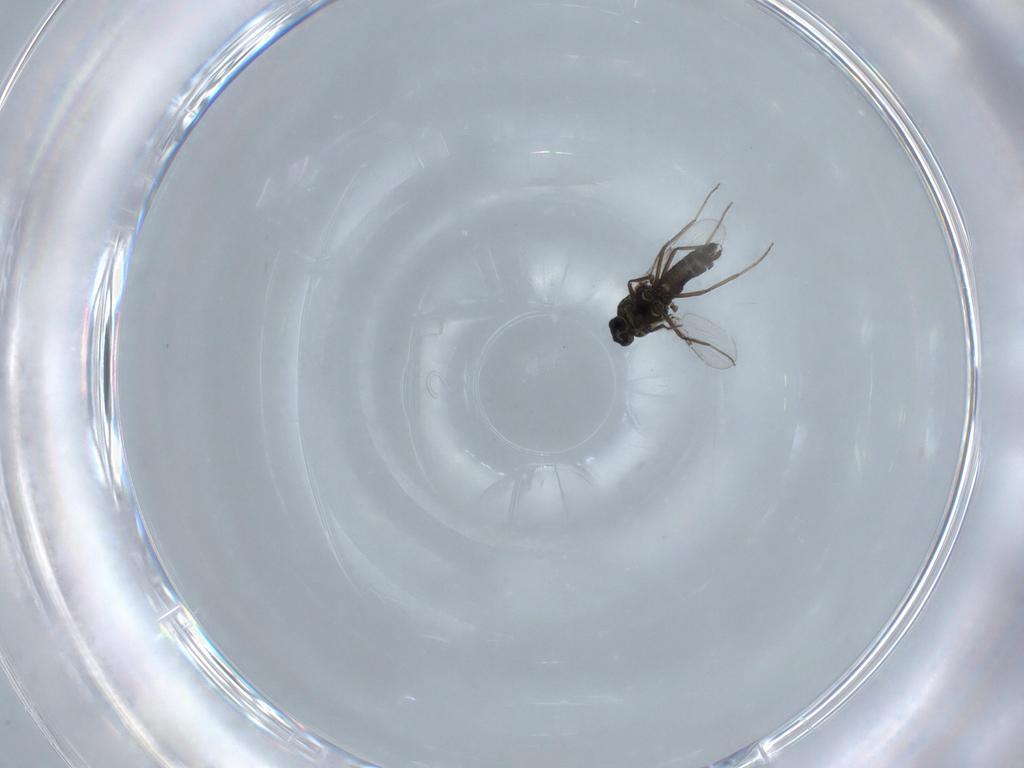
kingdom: Animalia
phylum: Arthropoda
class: Insecta
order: Diptera
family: Ceratopogonidae
